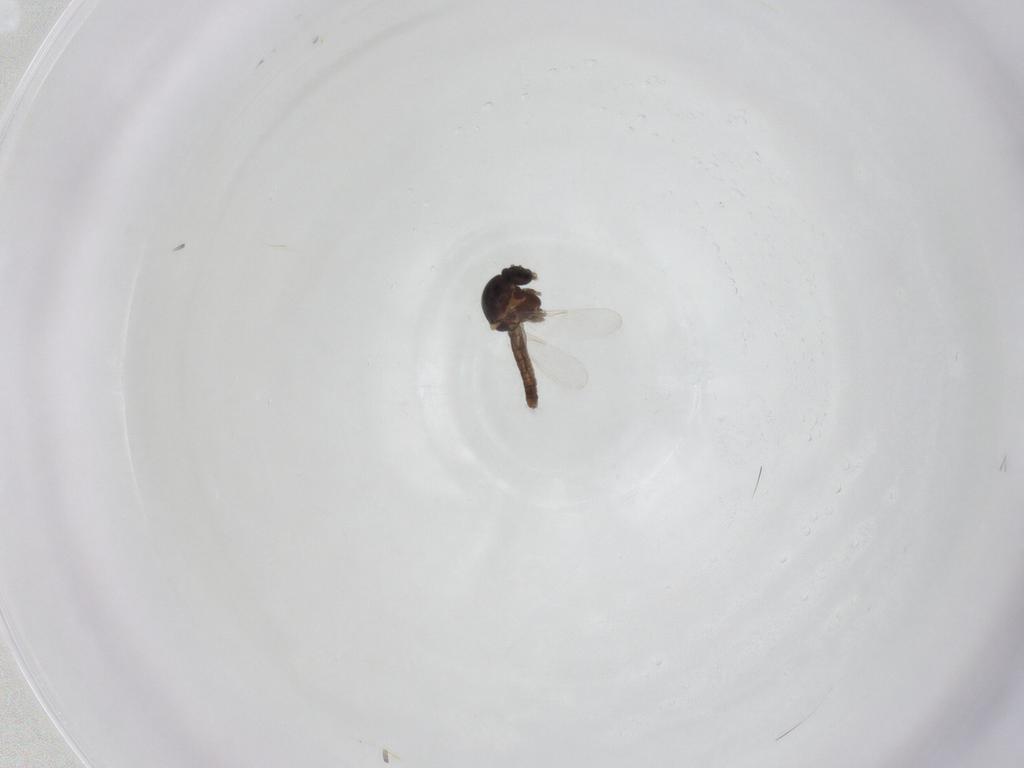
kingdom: Animalia
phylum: Arthropoda
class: Insecta
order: Diptera
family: Ceratopogonidae
